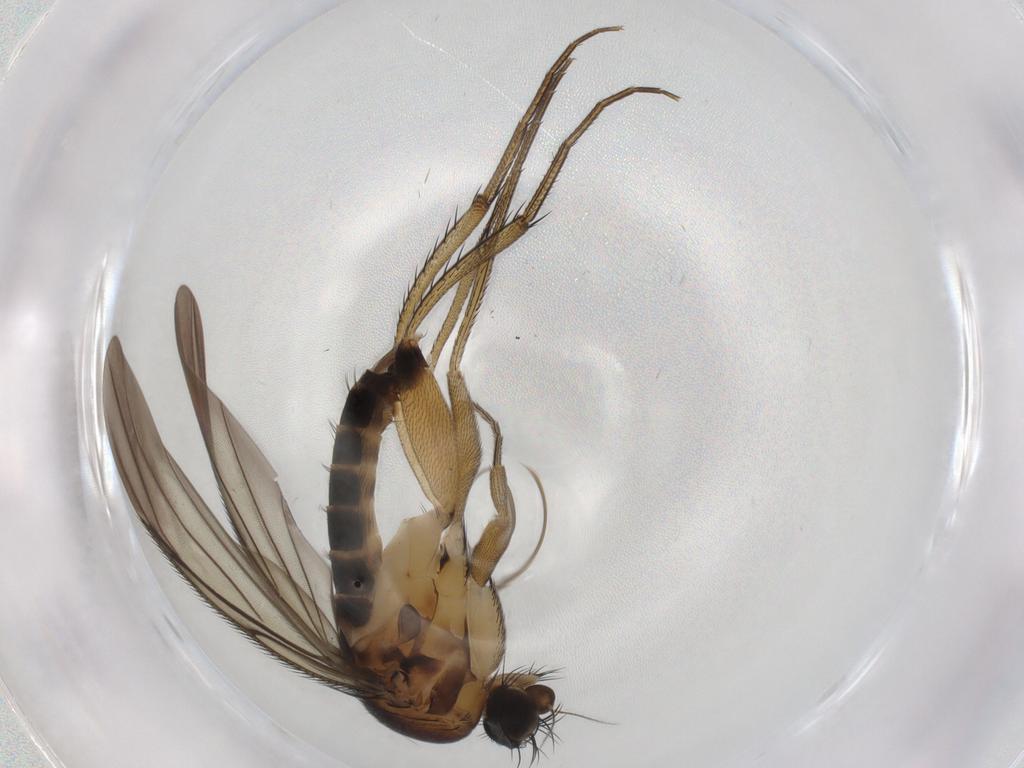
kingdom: Animalia
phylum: Arthropoda
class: Insecta
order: Diptera
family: Phoridae
